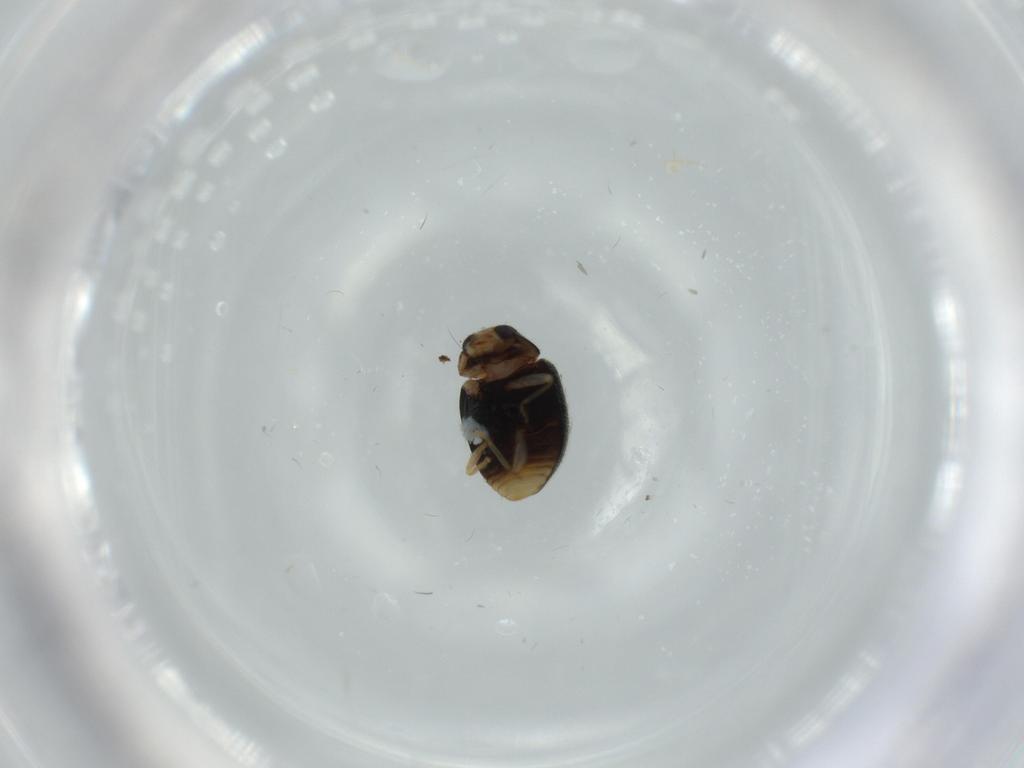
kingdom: Animalia
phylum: Arthropoda
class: Insecta
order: Coleoptera
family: Coccinellidae
